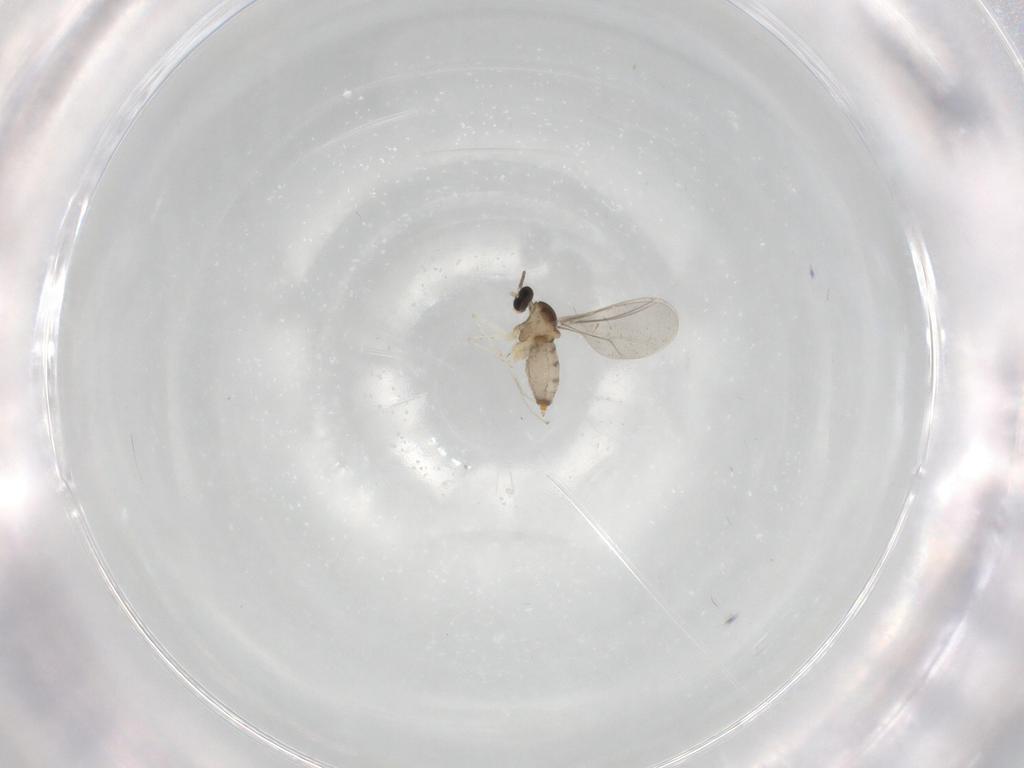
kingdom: Animalia
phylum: Arthropoda
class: Insecta
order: Diptera
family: Cecidomyiidae
